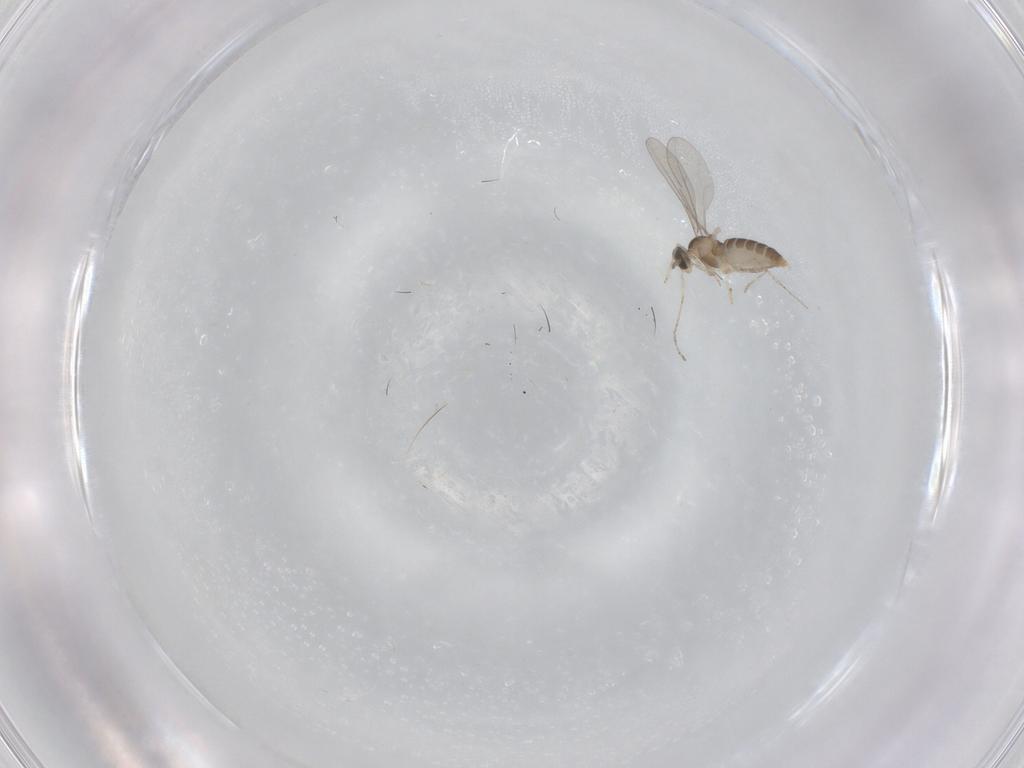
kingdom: Animalia
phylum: Arthropoda
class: Insecta
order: Diptera
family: Cecidomyiidae
